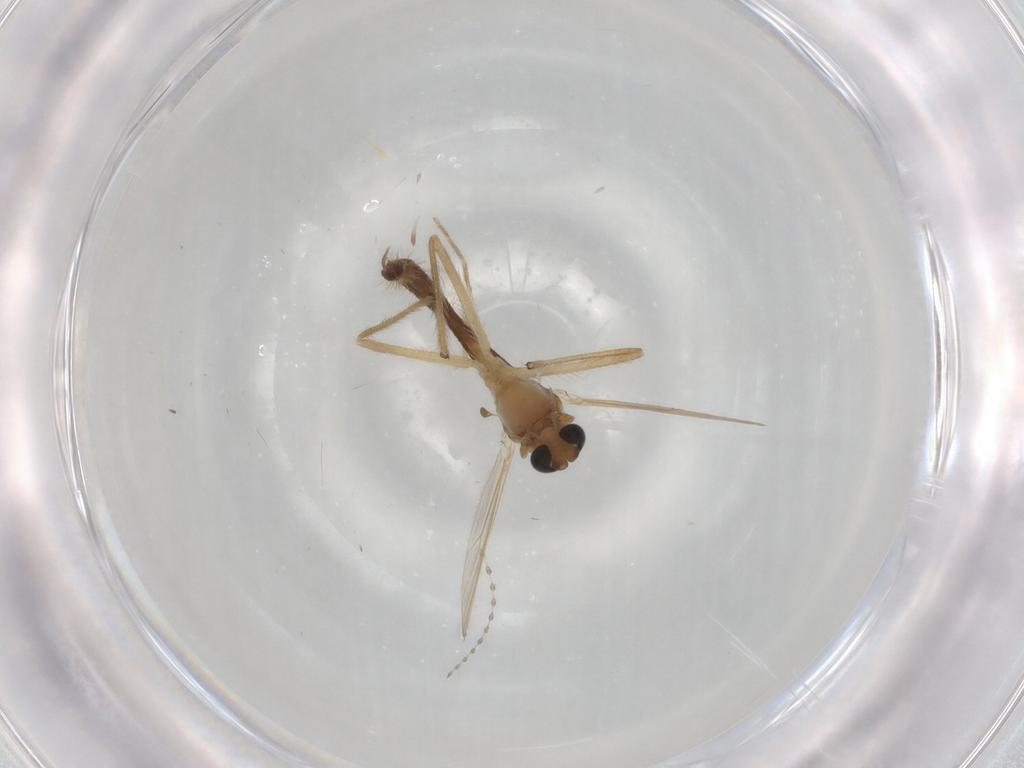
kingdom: Animalia
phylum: Arthropoda
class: Insecta
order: Diptera
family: Chironomidae
